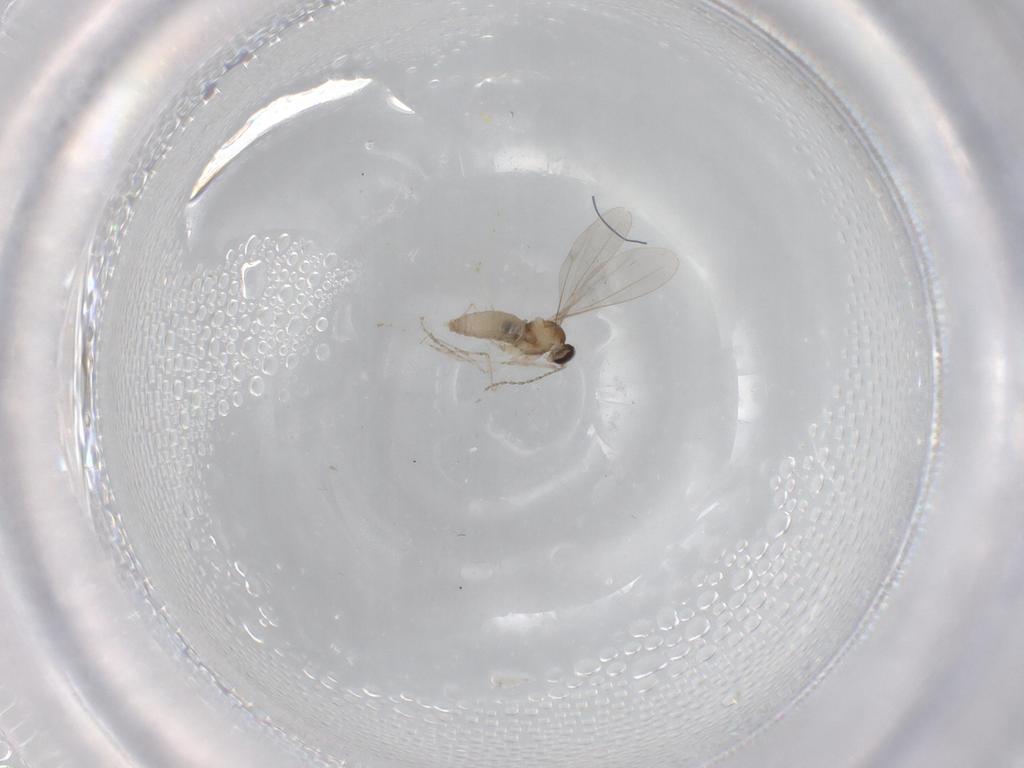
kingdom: Animalia
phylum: Arthropoda
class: Insecta
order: Diptera
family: Cecidomyiidae
